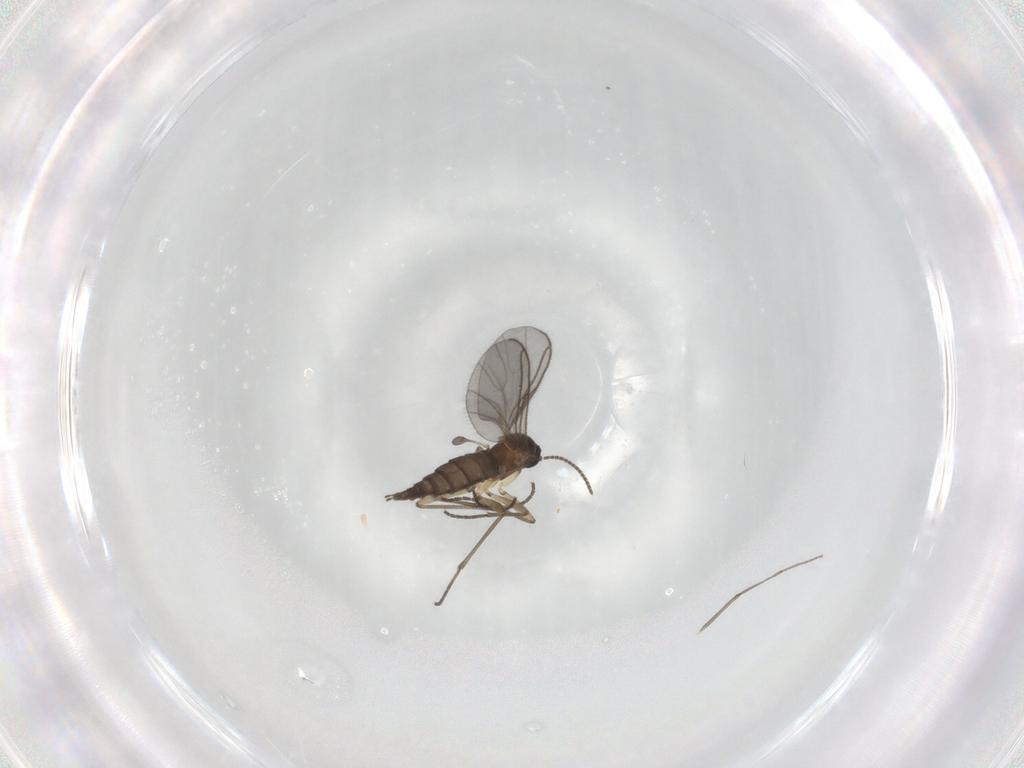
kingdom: Animalia
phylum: Arthropoda
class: Insecta
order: Diptera
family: Sciaridae
